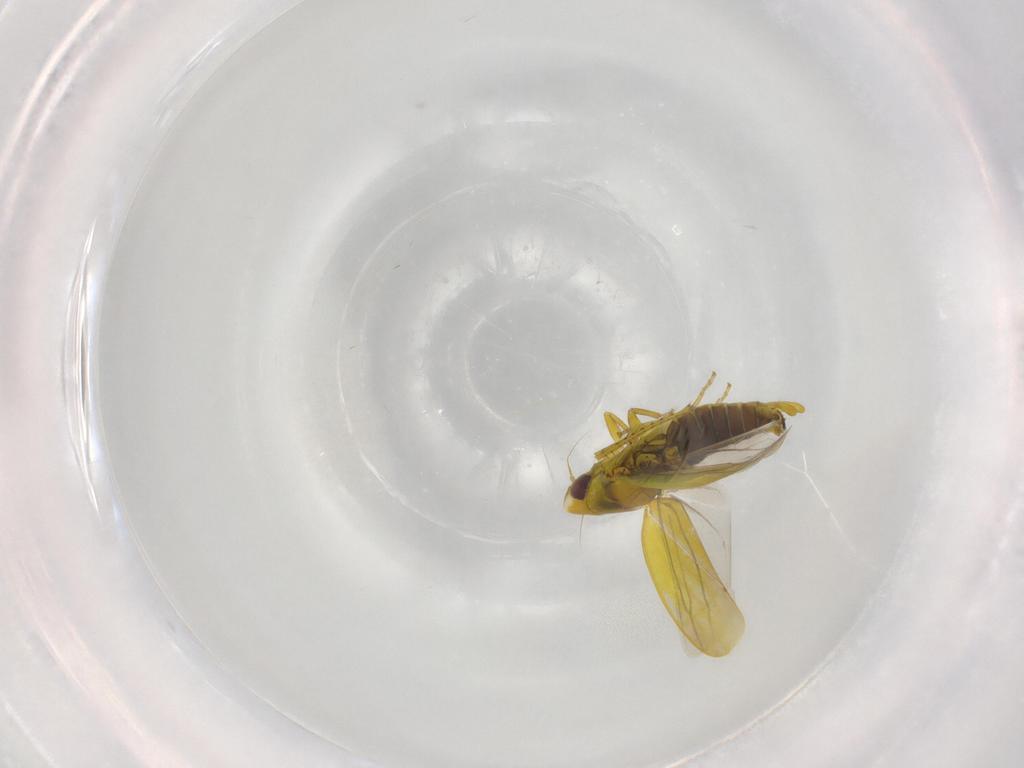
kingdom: Animalia
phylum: Arthropoda
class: Insecta
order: Hemiptera
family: Cicadellidae
